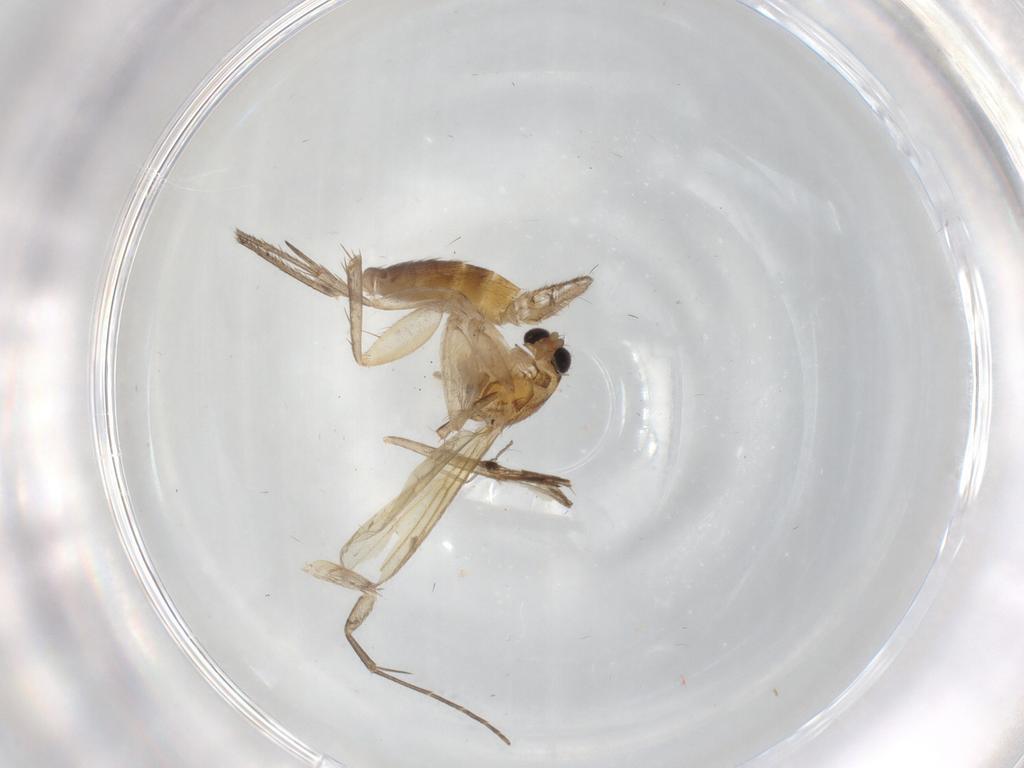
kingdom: Animalia
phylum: Arthropoda
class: Insecta
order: Diptera
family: Mycetophilidae
